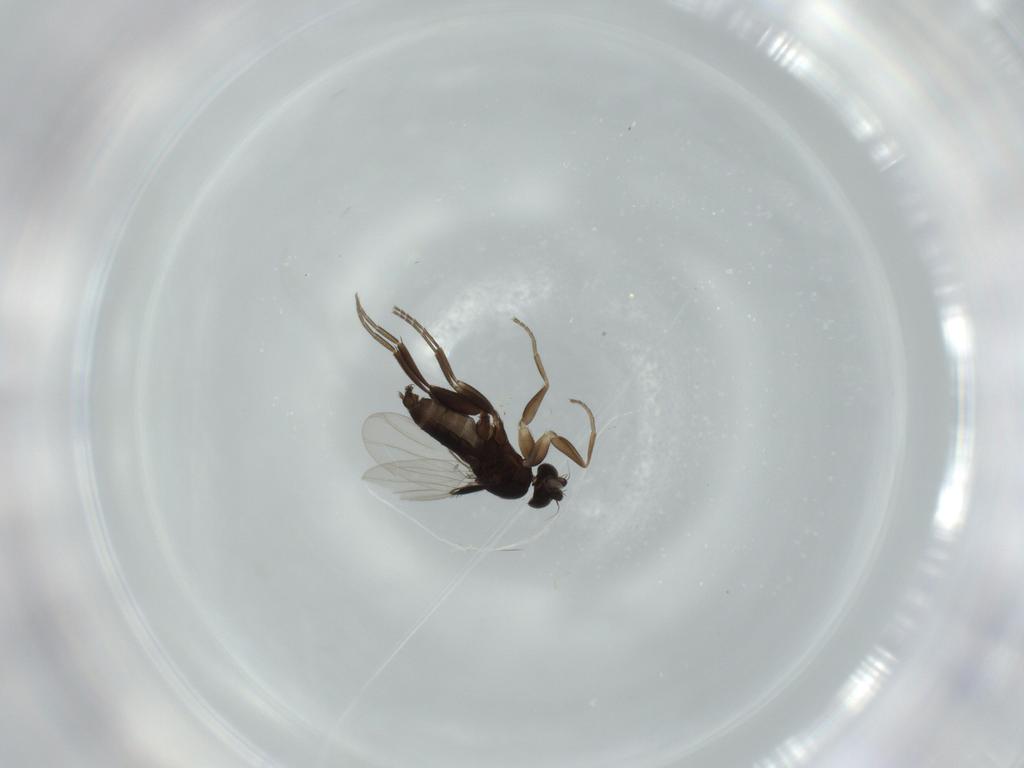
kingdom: Animalia
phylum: Arthropoda
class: Insecta
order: Diptera
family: Phoridae
